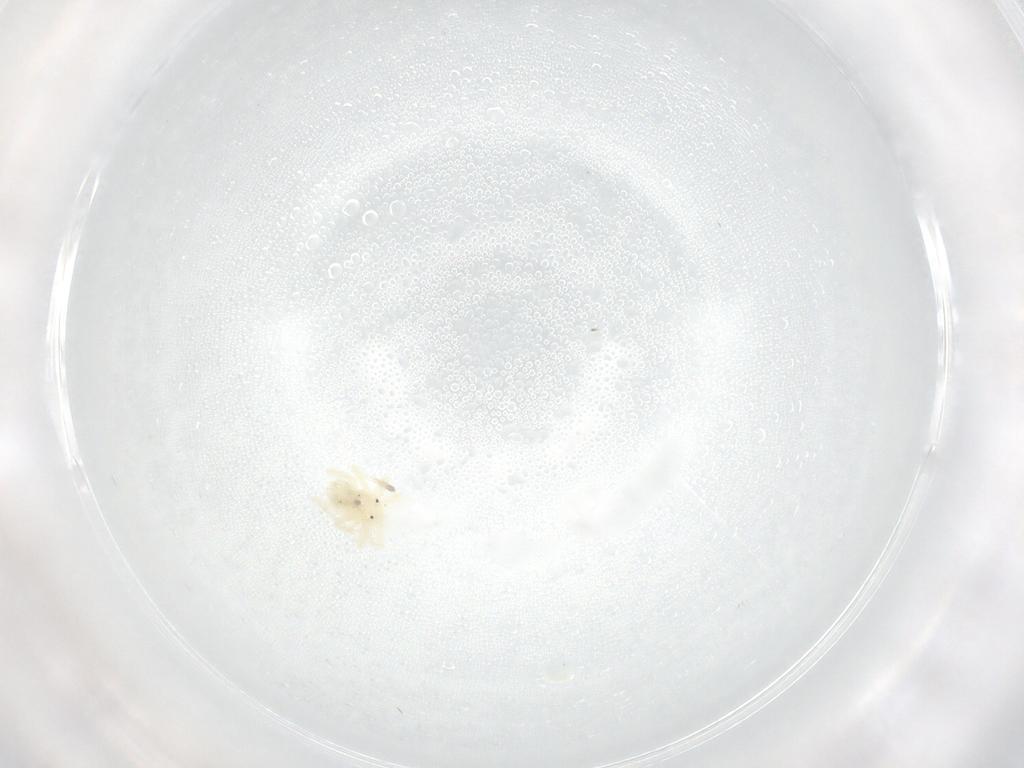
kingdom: Animalia
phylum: Arthropoda
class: Arachnida
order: Trombidiformes
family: Anystidae
